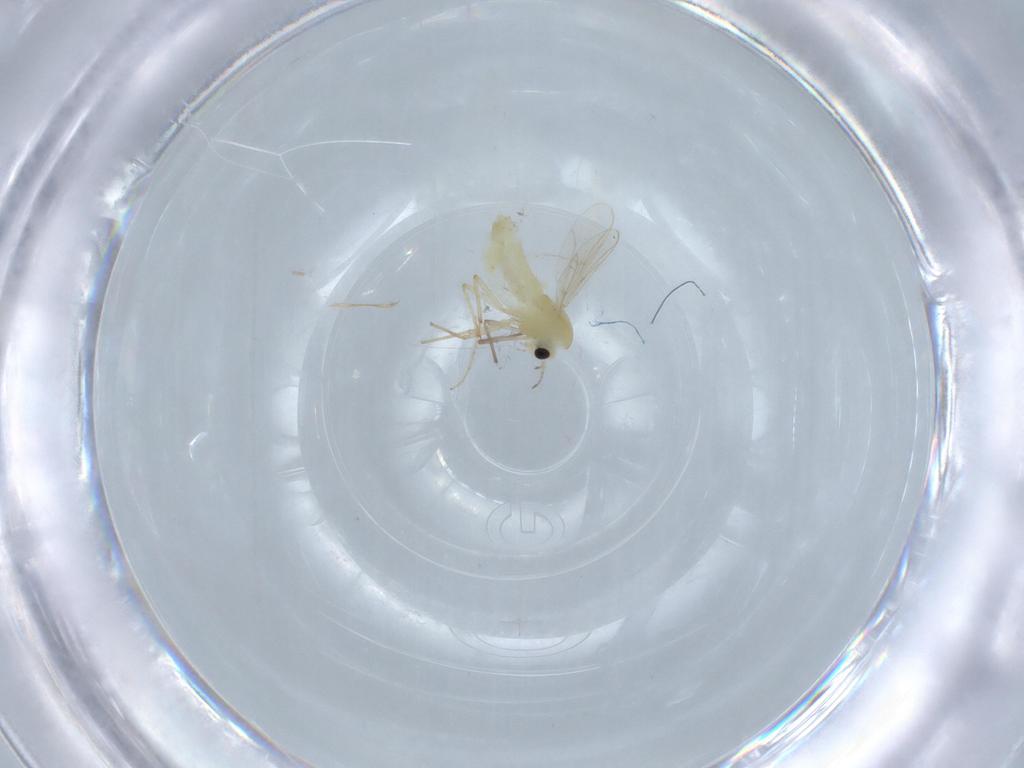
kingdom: Animalia
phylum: Arthropoda
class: Insecta
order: Diptera
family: Chironomidae
